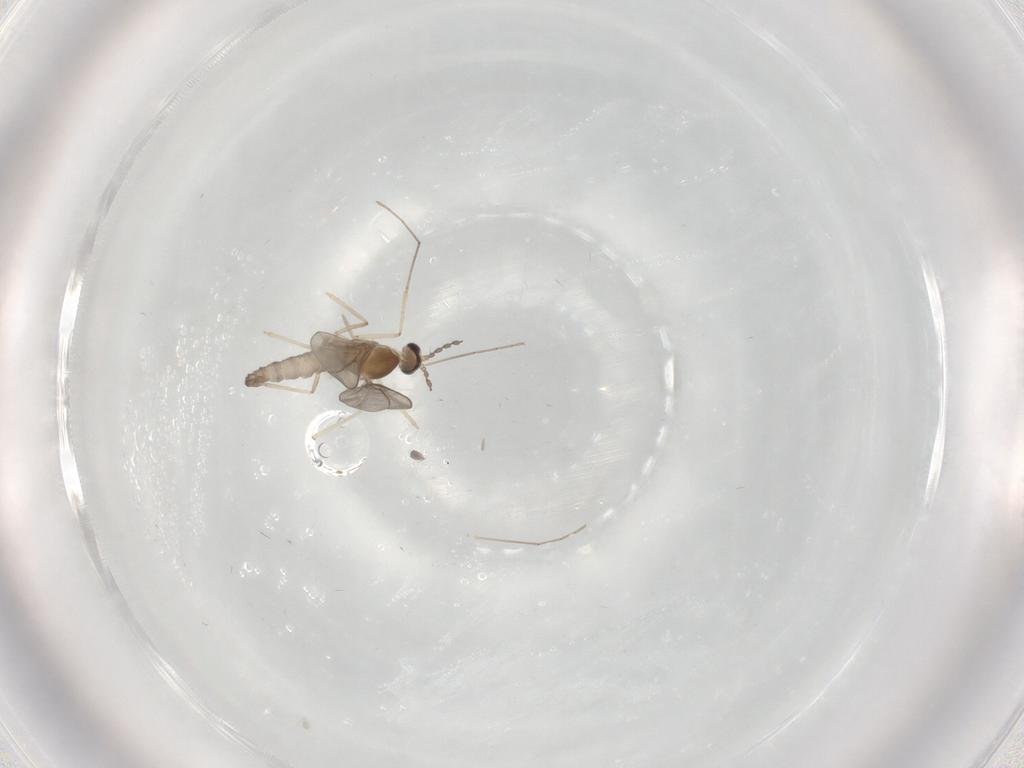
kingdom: Animalia
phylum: Arthropoda
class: Insecta
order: Diptera
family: Cecidomyiidae
